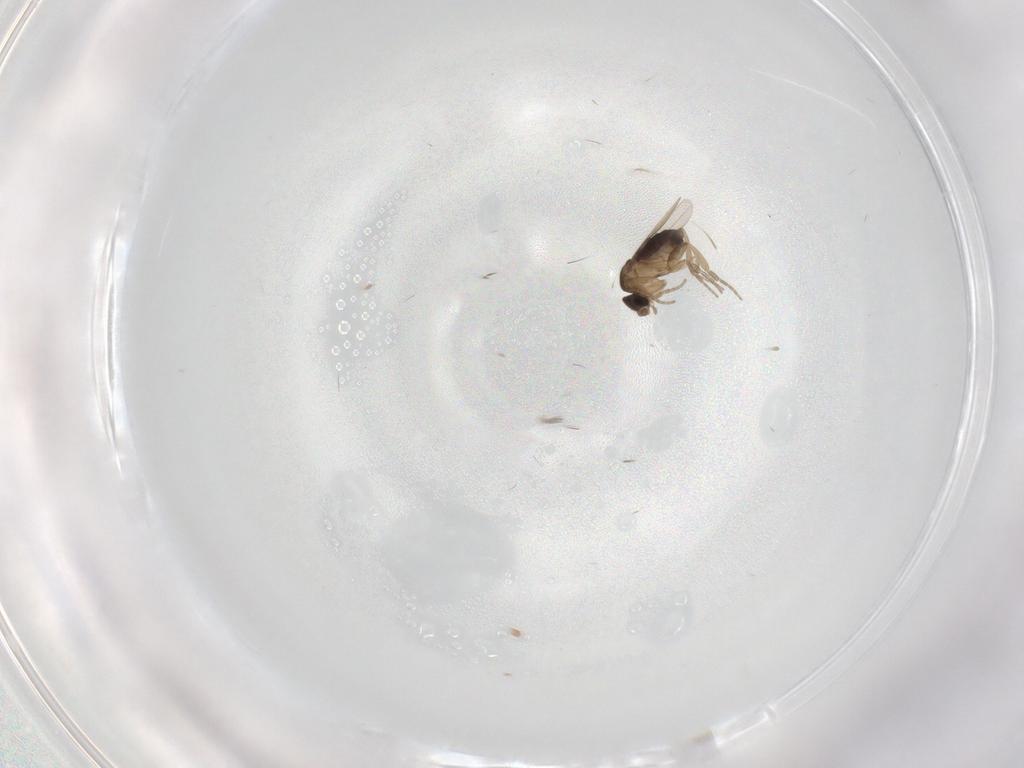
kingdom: Animalia
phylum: Arthropoda
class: Insecta
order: Diptera
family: Phoridae
